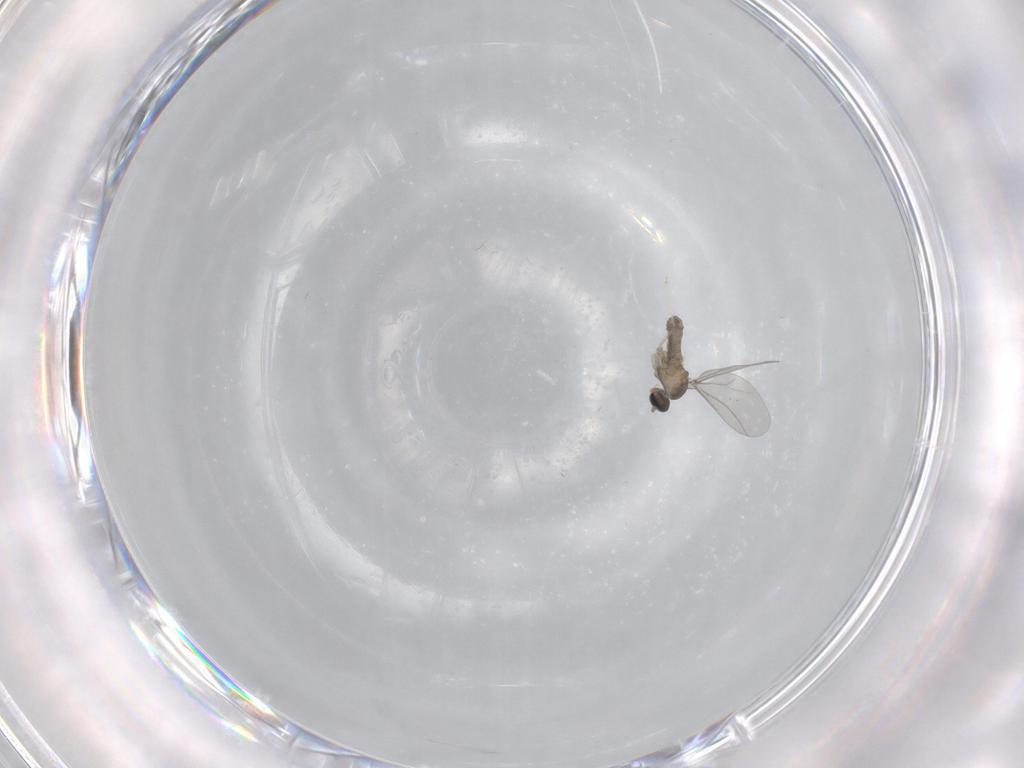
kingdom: Animalia
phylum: Arthropoda
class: Insecta
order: Diptera
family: Cecidomyiidae
